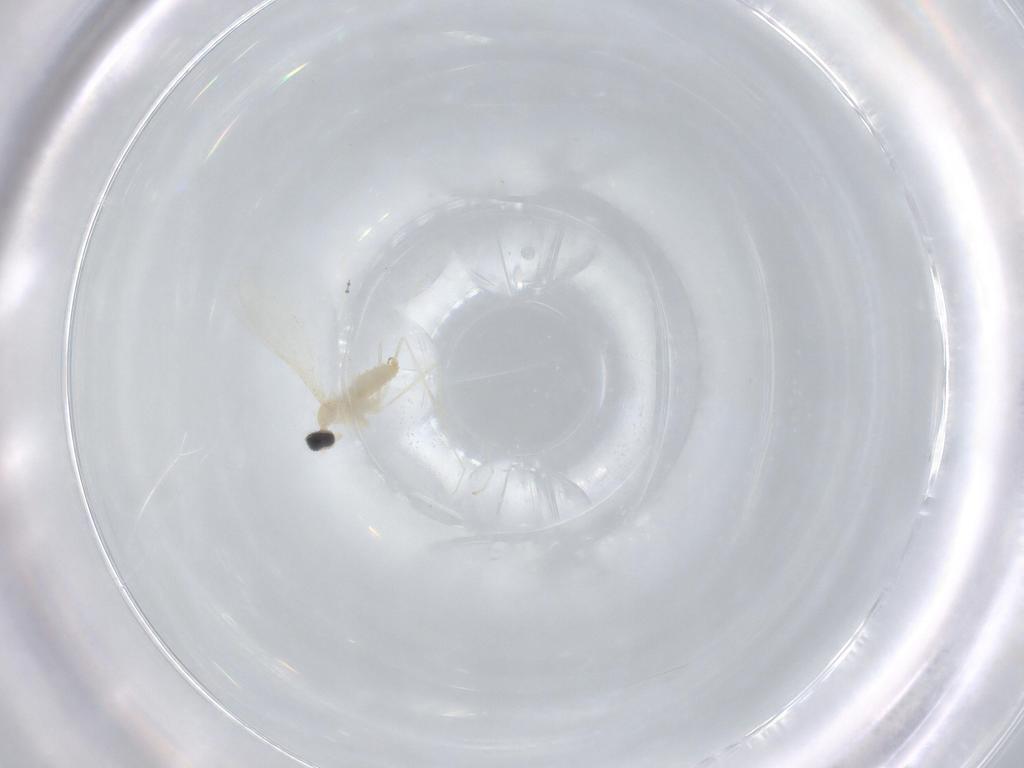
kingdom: Animalia
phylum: Arthropoda
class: Insecta
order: Diptera
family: Cecidomyiidae
